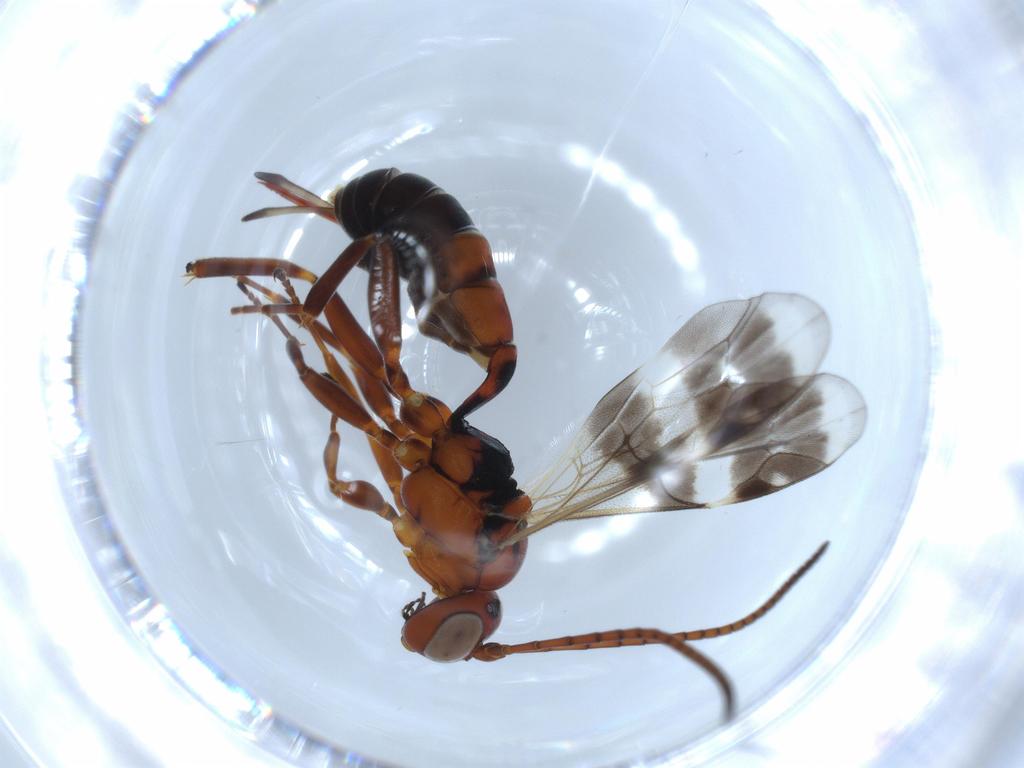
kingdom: Animalia
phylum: Arthropoda
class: Insecta
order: Hymenoptera
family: Ichneumonidae
